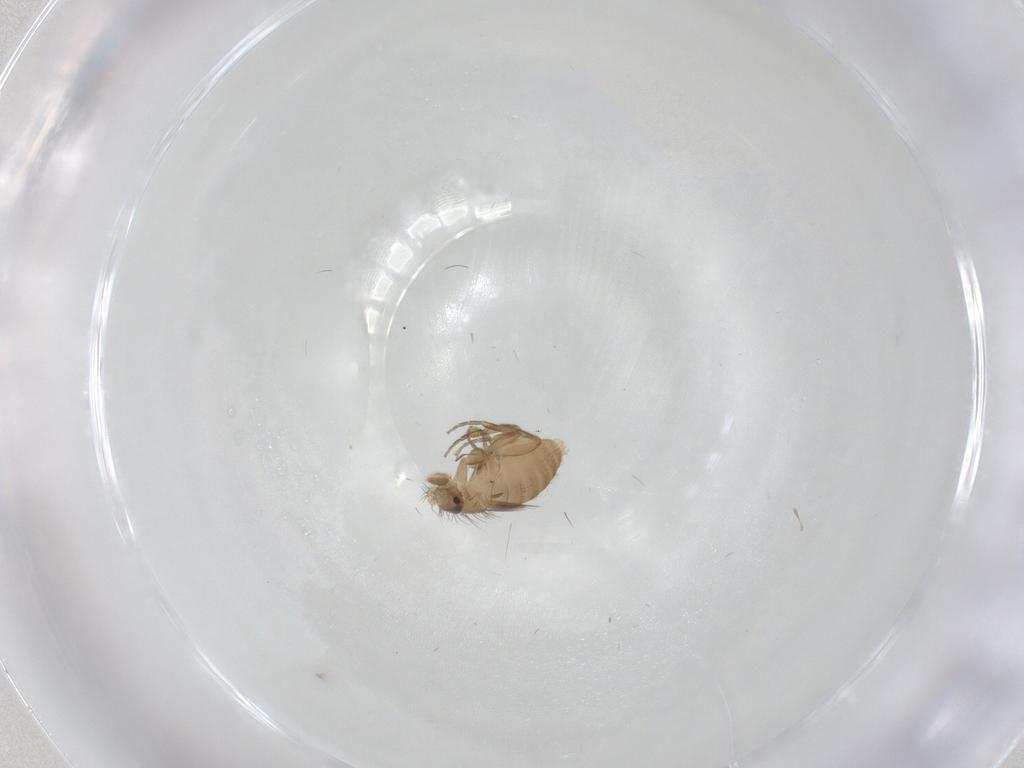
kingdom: Animalia
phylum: Arthropoda
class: Insecta
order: Diptera
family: Phoridae
